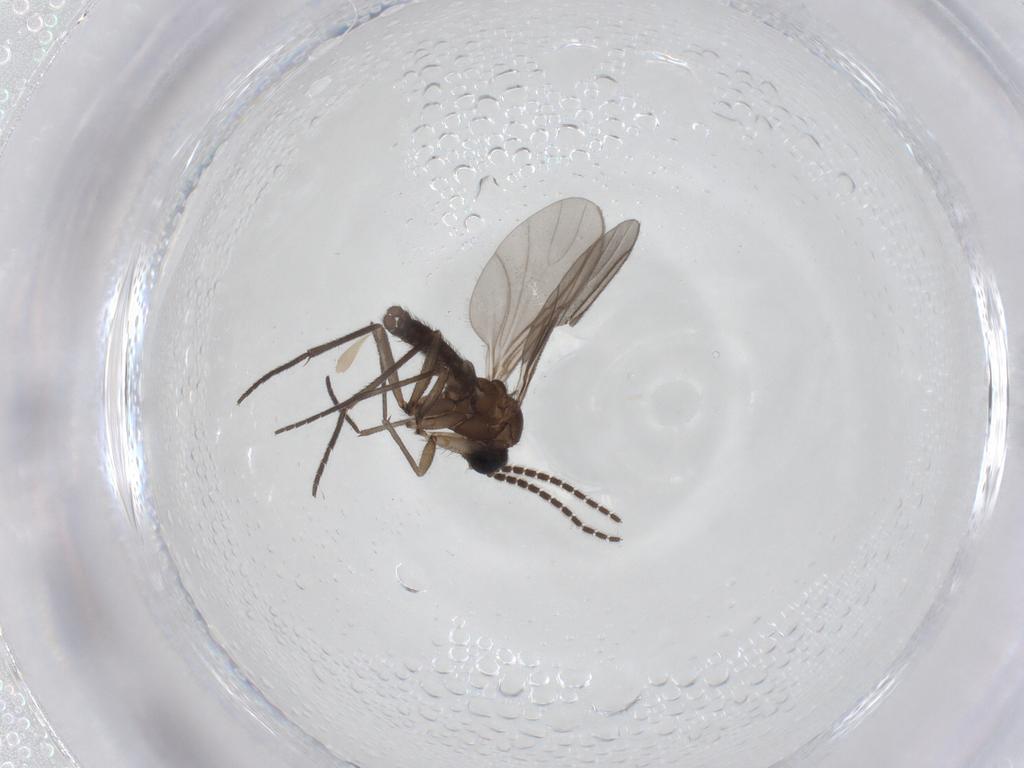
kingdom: Animalia
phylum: Arthropoda
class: Insecta
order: Diptera
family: Sciaridae
